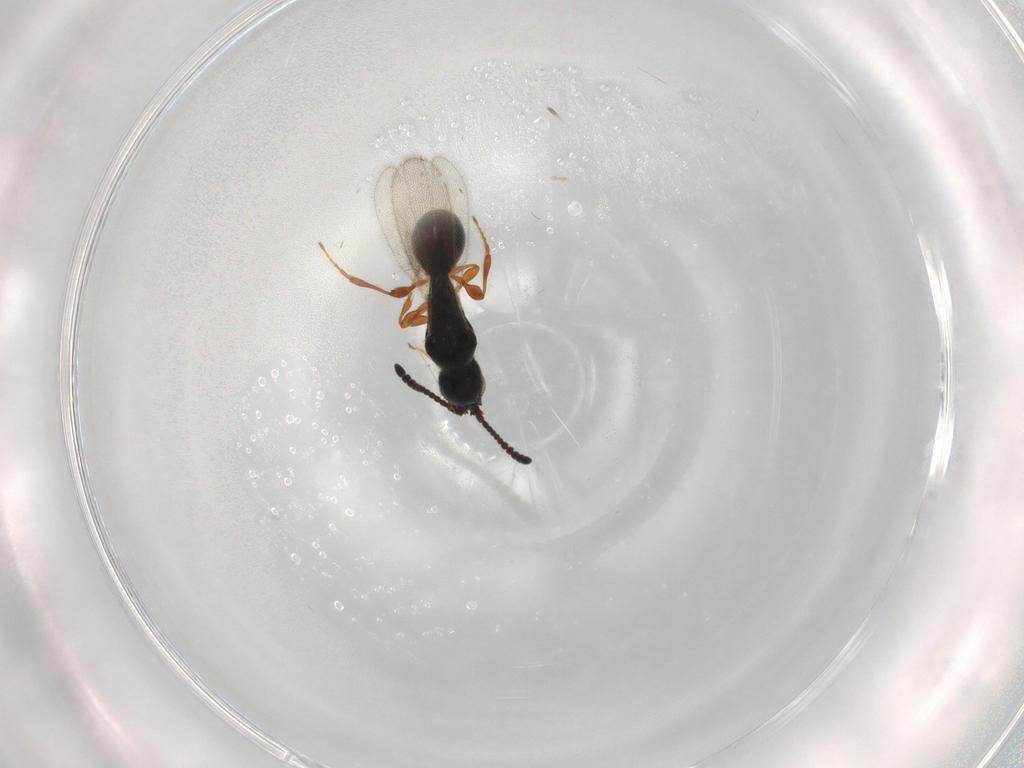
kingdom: Animalia
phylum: Arthropoda
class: Insecta
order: Hymenoptera
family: Diapriidae
